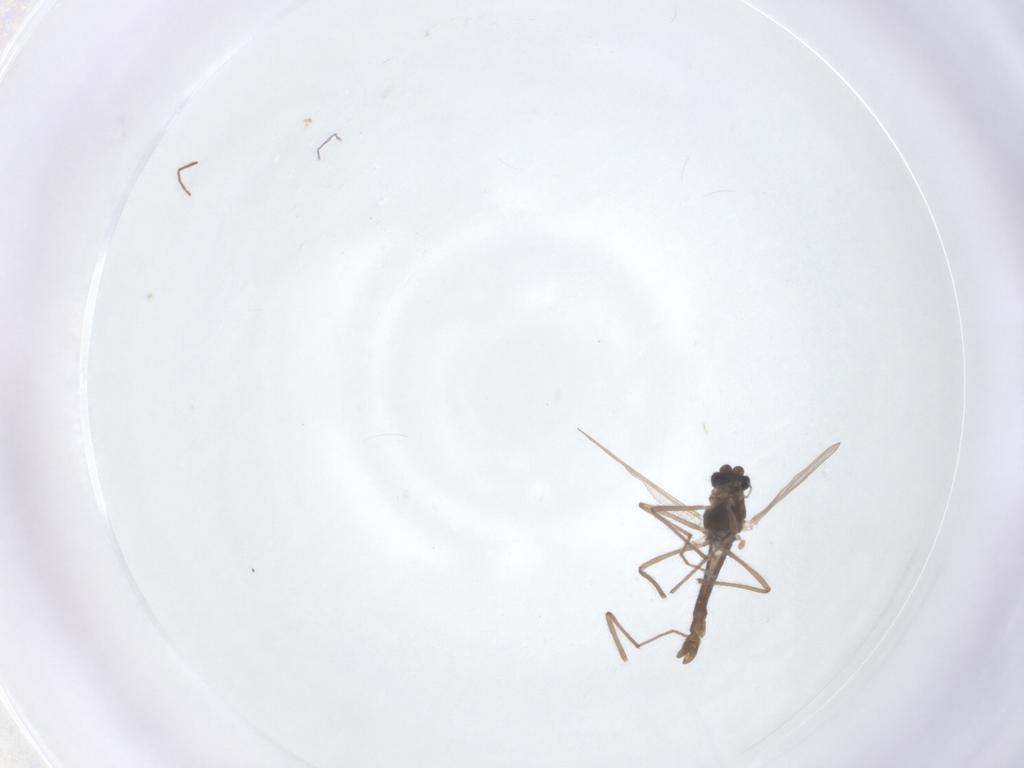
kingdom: Animalia
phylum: Arthropoda
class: Insecta
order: Diptera
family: Chironomidae
